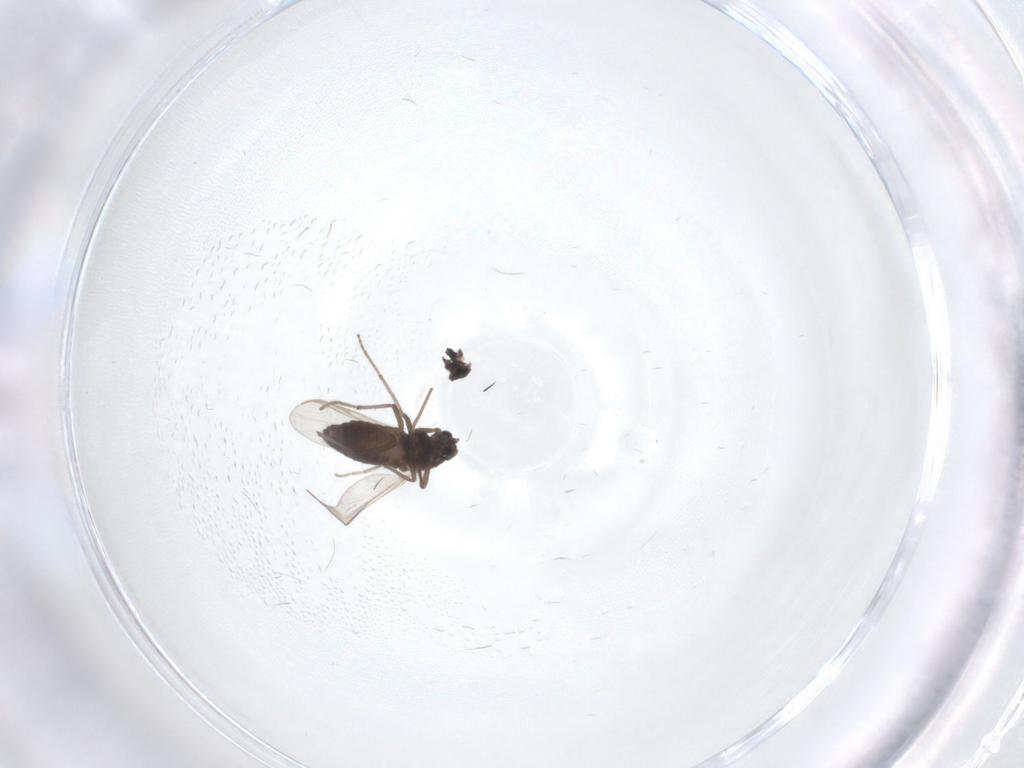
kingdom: Animalia
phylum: Arthropoda
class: Insecta
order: Diptera
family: Chironomidae
